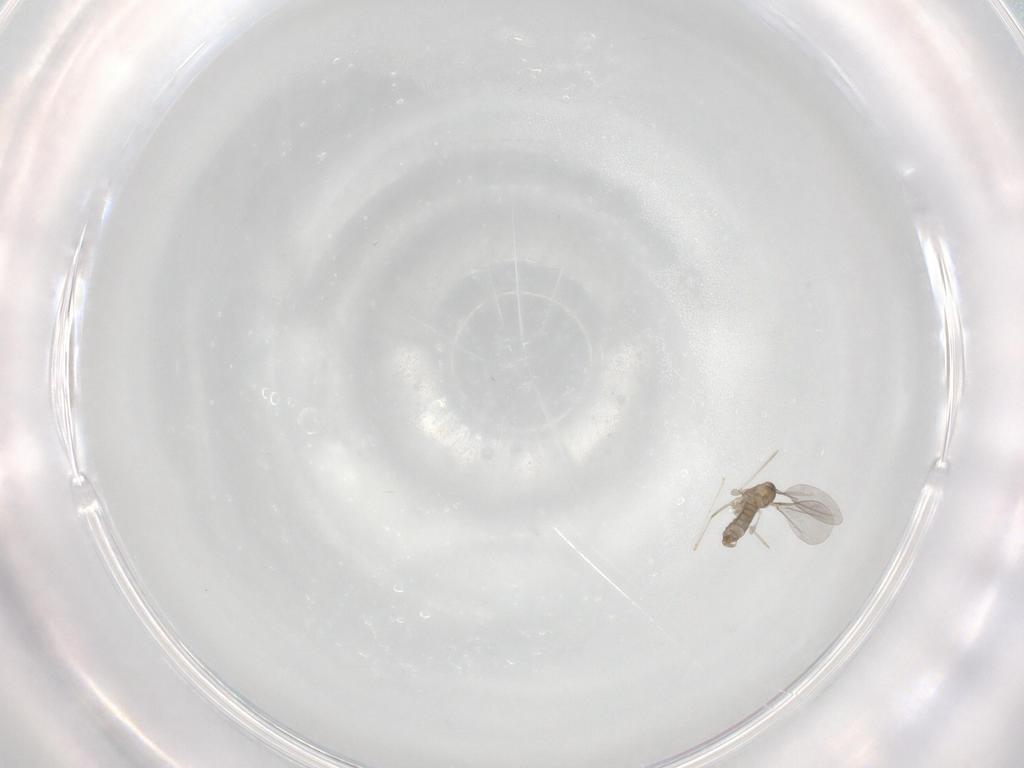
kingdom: Animalia
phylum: Arthropoda
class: Insecta
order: Diptera
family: Cecidomyiidae
